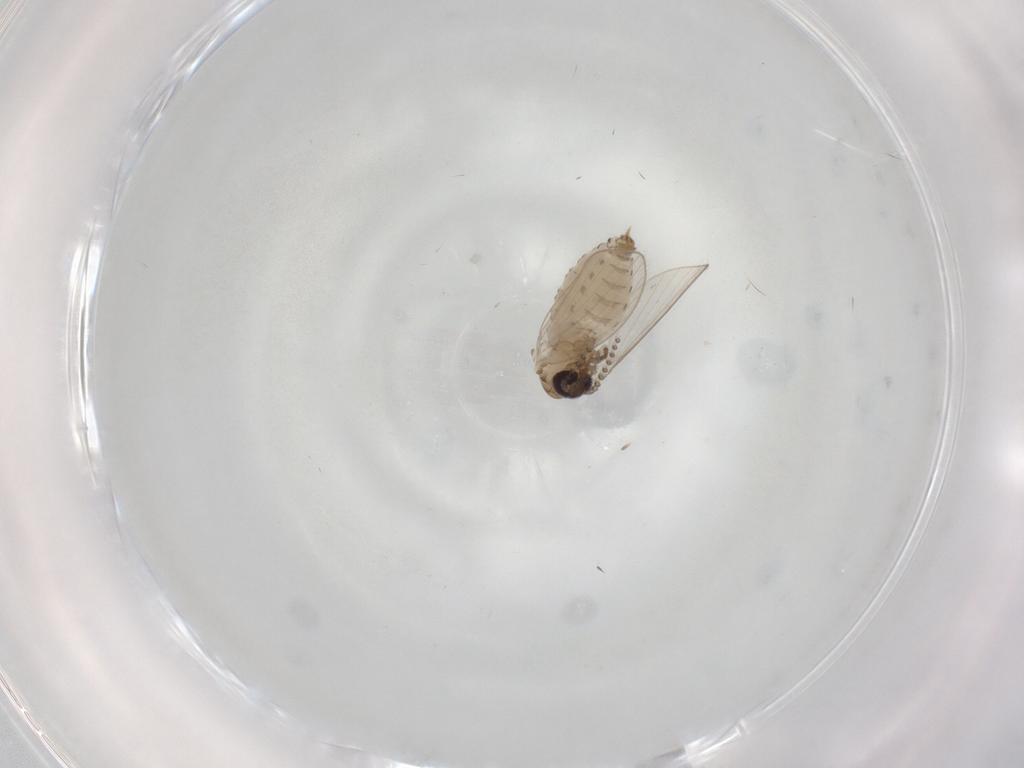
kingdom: Animalia
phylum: Arthropoda
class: Insecta
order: Diptera
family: Psychodidae
